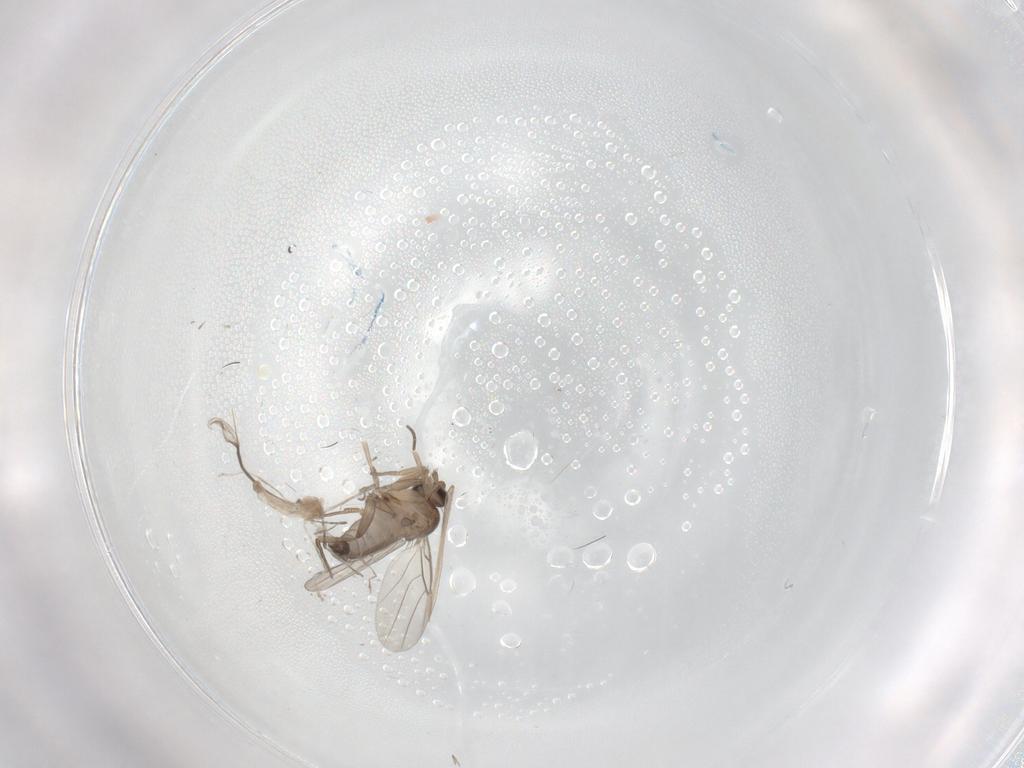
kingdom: Animalia
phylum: Arthropoda
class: Insecta
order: Diptera
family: Phoridae
